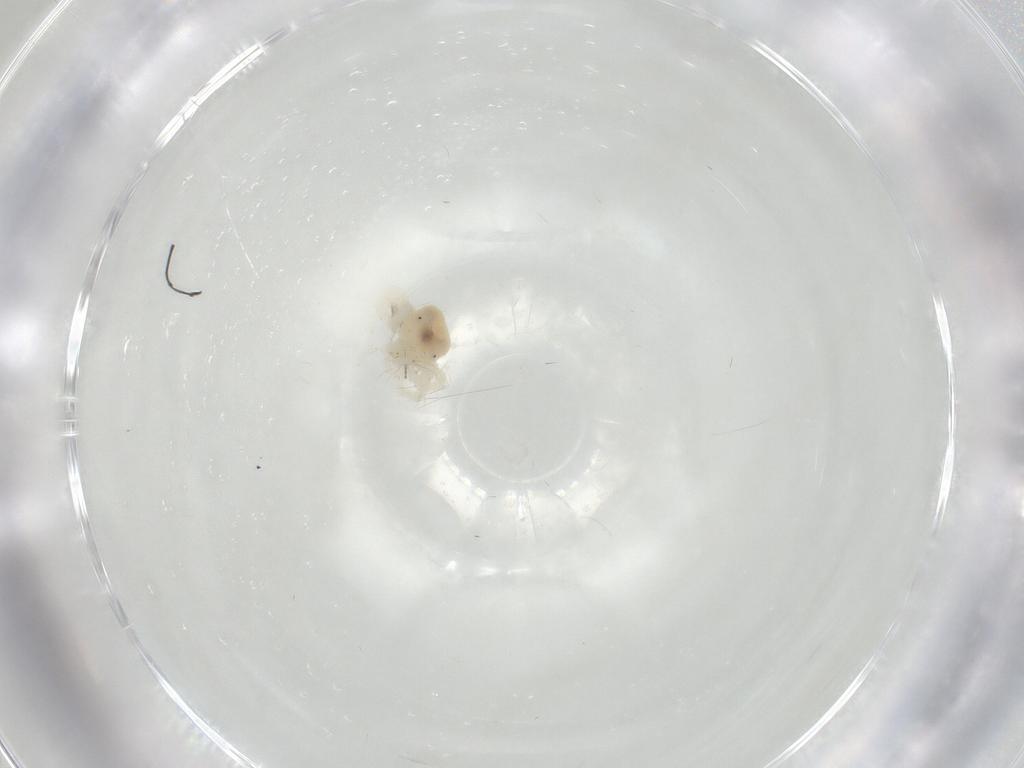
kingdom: Animalia
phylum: Arthropoda
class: Arachnida
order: Trombidiformes
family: Anystidae
